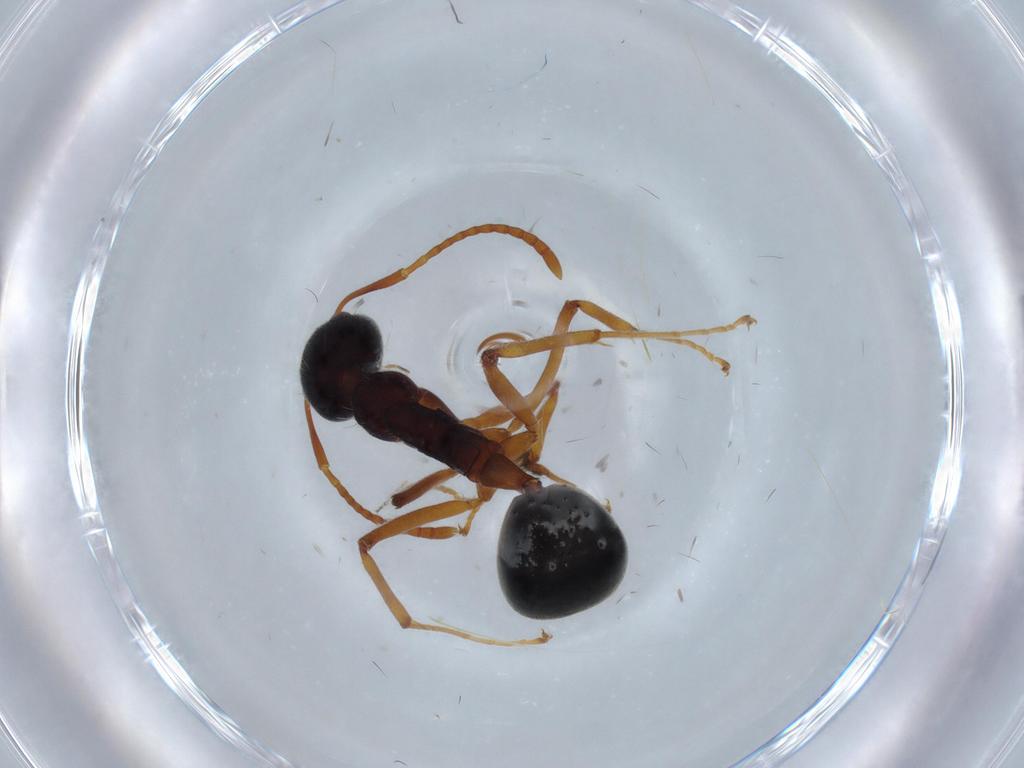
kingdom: Animalia
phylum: Arthropoda
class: Insecta
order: Hymenoptera
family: Formicidae
